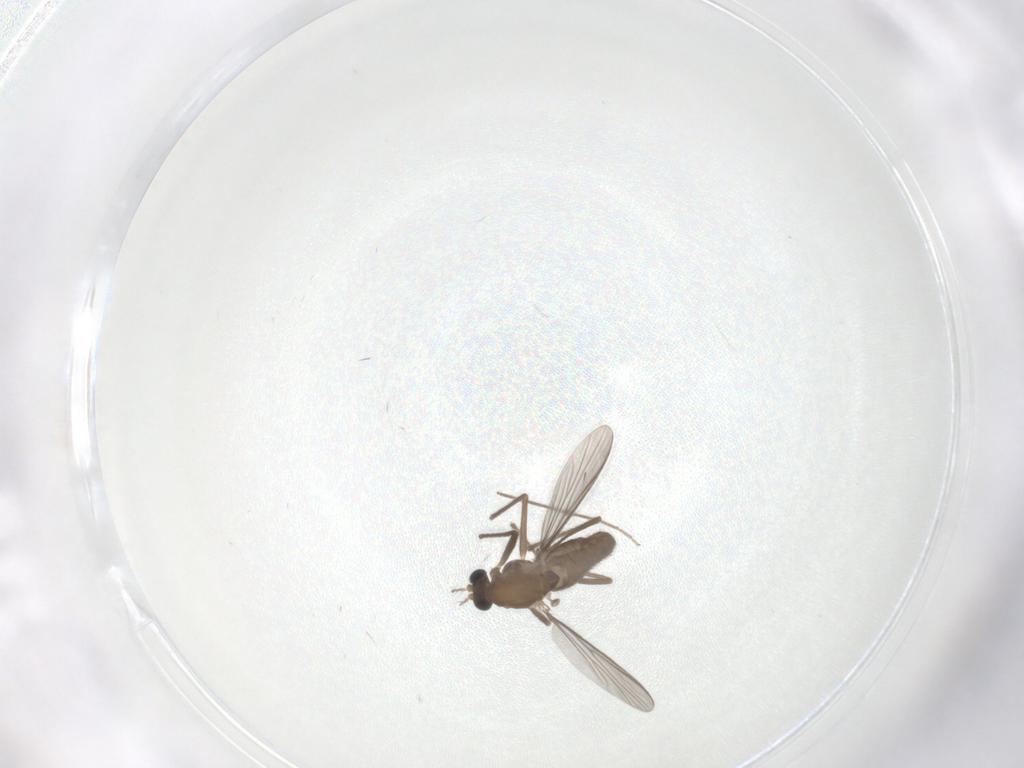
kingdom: Animalia
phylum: Arthropoda
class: Insecta
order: Diptera
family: Chironomidae
